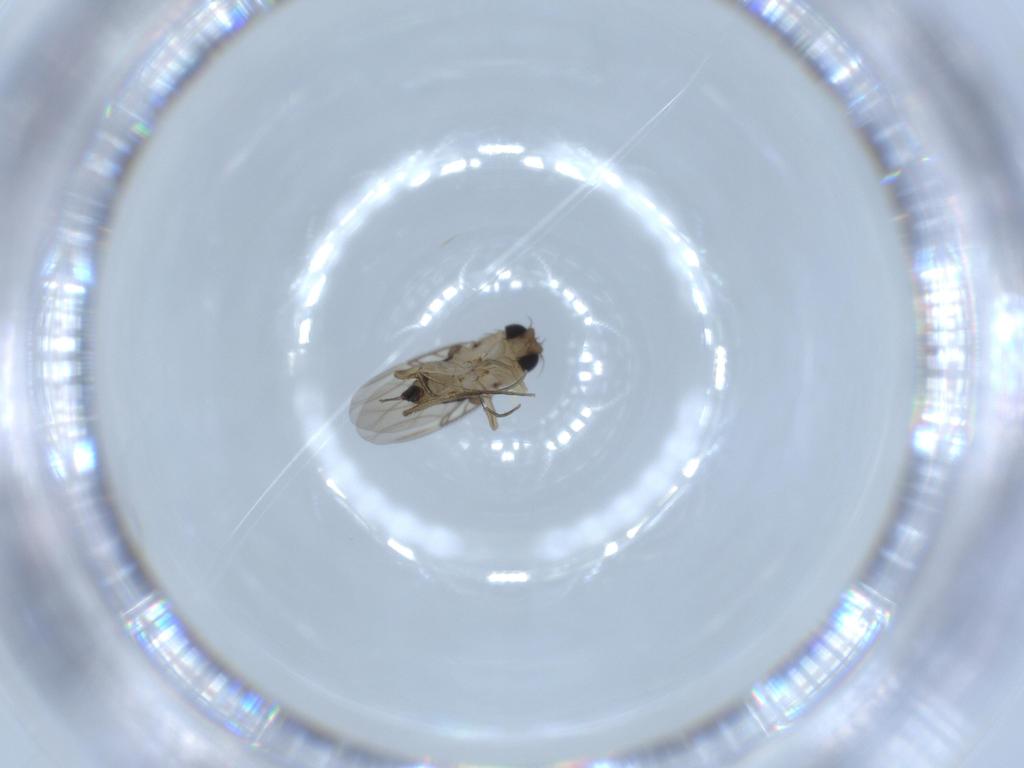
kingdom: Animalia
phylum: Arthropoda
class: Insecta
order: Diptera
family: Phoridae
